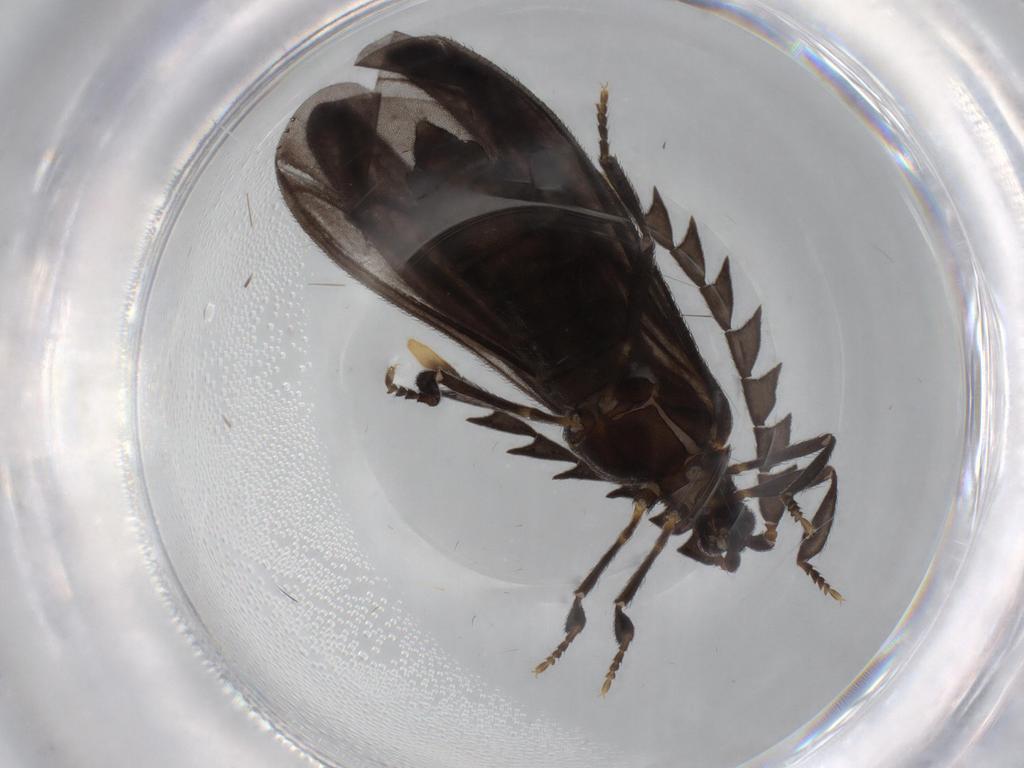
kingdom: Animalia
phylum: Arthropoda
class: Insecta
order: Coleoptera
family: Lycidae
